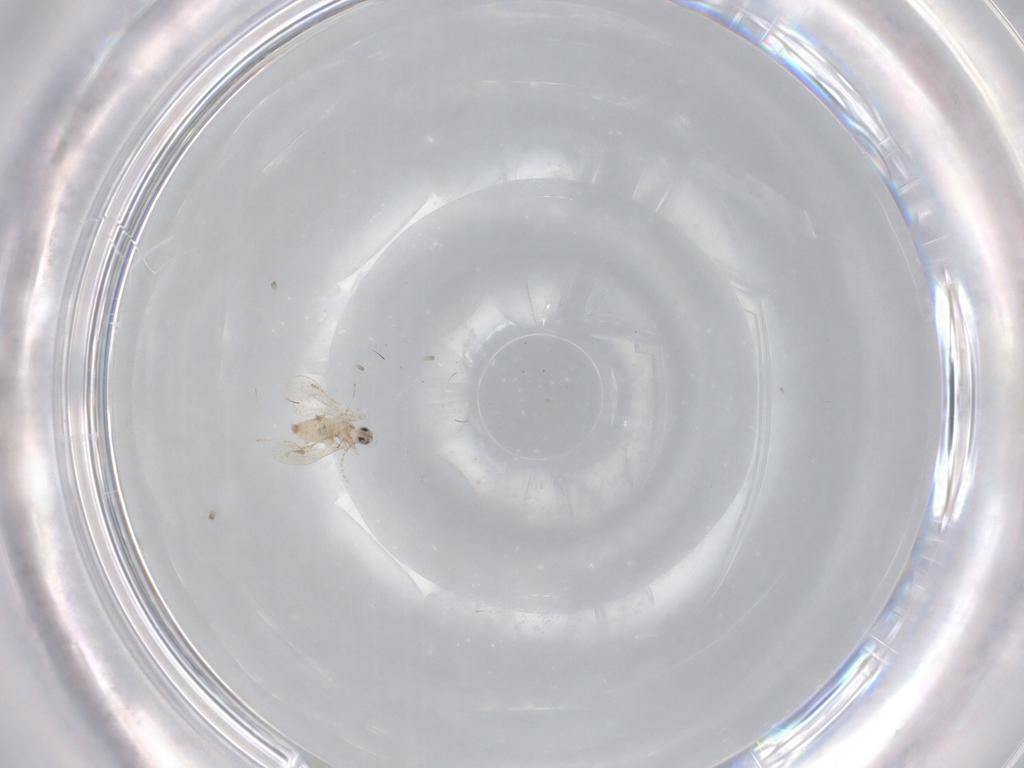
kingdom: Animalia
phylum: Arthropoda
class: Insecta
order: Diptera
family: Cecidomyiidae
